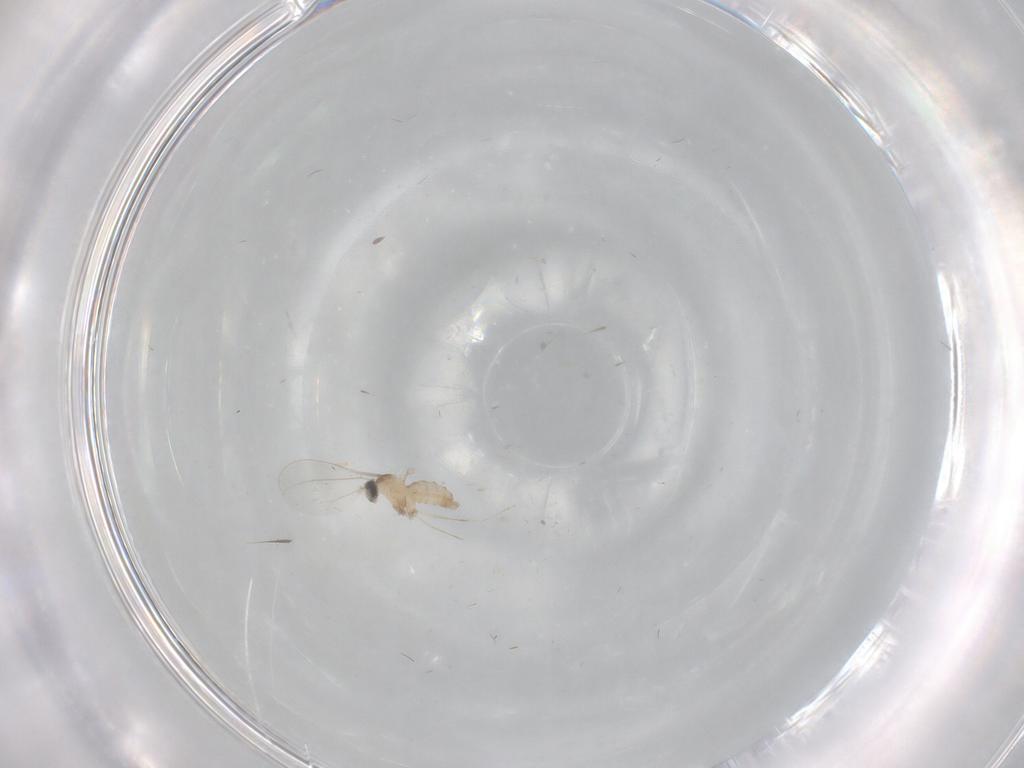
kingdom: Animalia
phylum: Arthropoda
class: Insecta
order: Diptera
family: Cecidomyiidae
